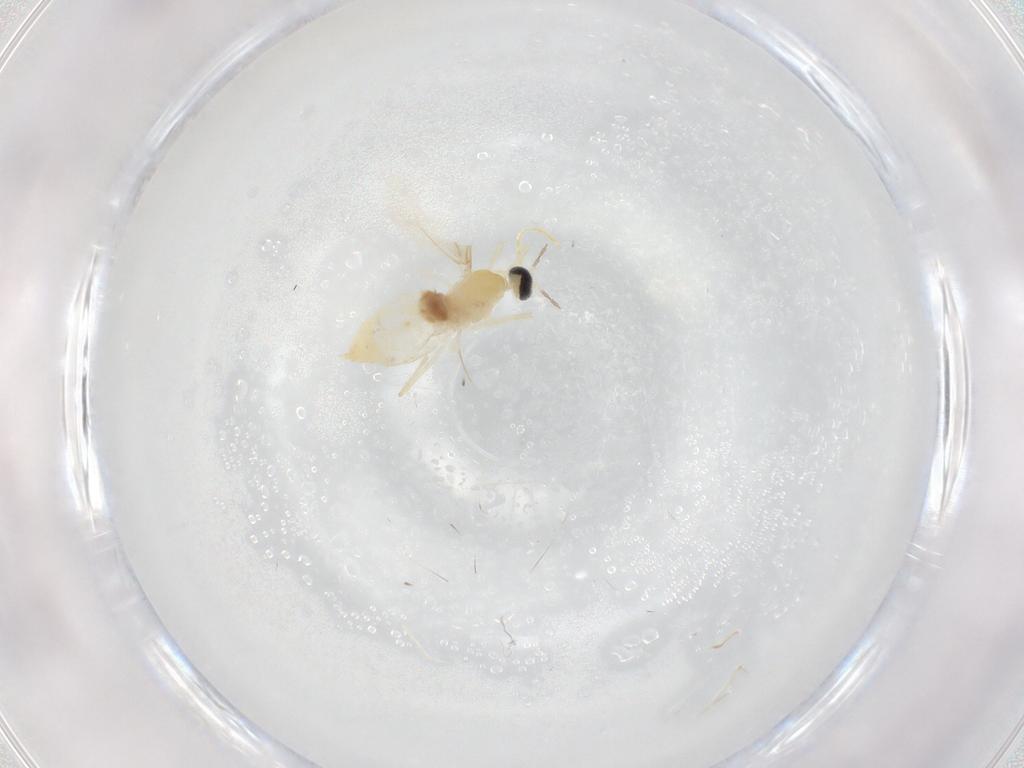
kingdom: Animalia
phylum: Arthropoda
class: Insecta
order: Diptera
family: Cecidomyiidae
